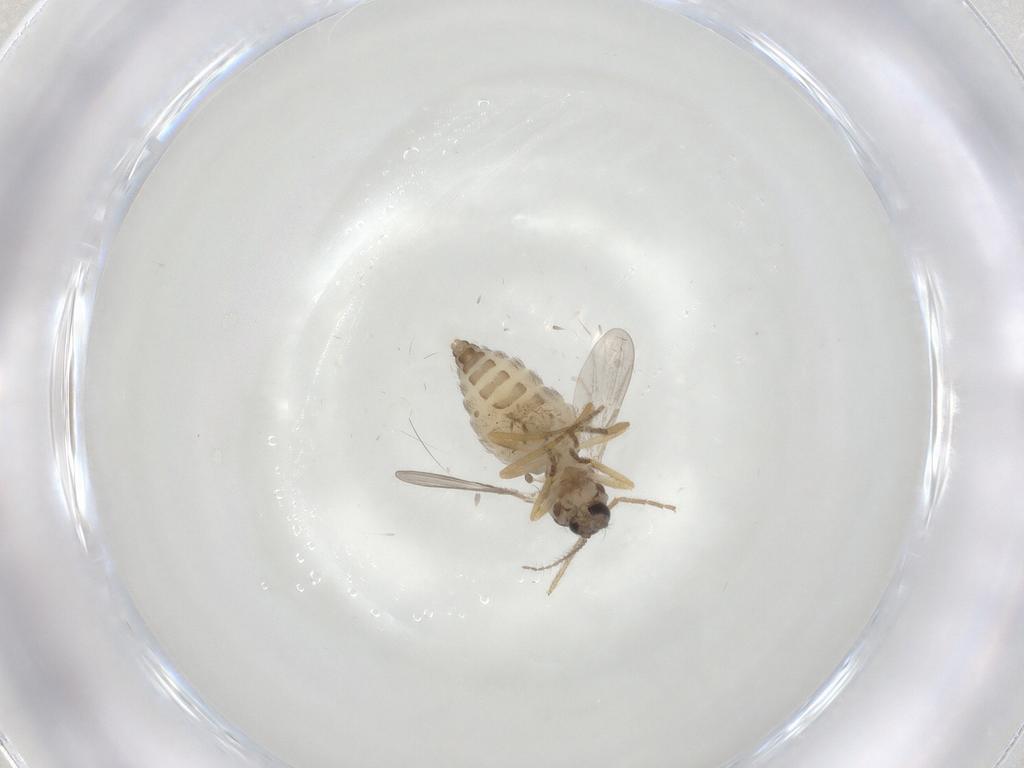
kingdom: Animalia
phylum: Arthropoda
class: Insecta
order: Diptera
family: Ceratopogonidae
